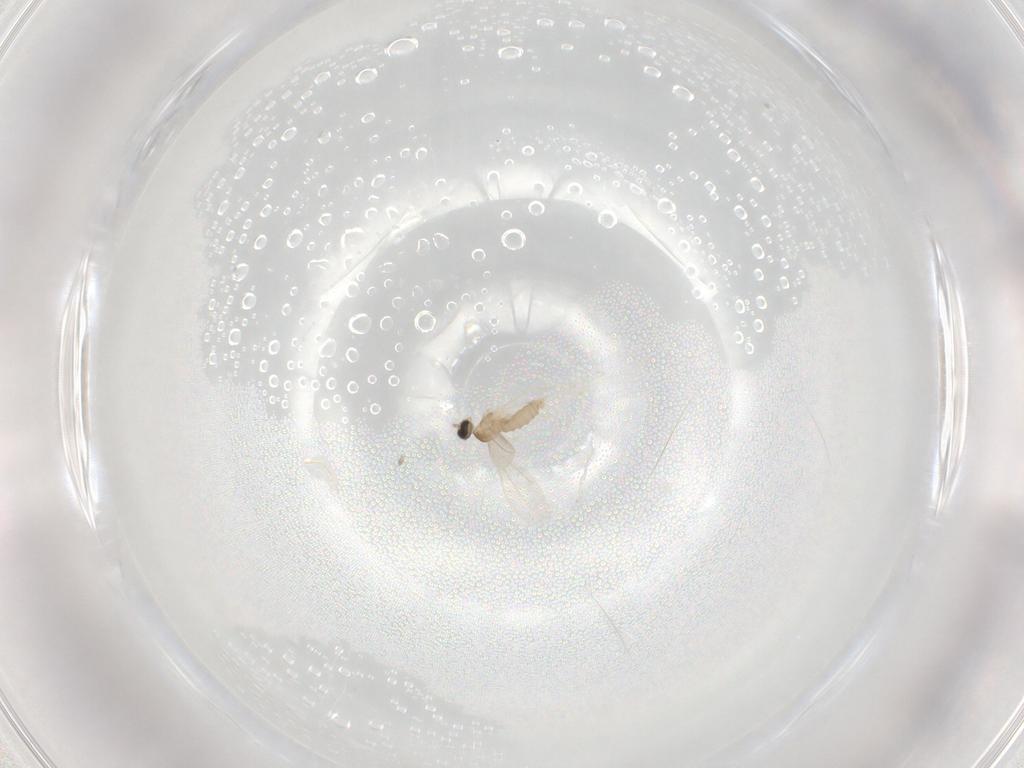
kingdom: Animalia
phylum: Arthropoda
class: Insecta
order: Diptera
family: Cecidomyiidae
